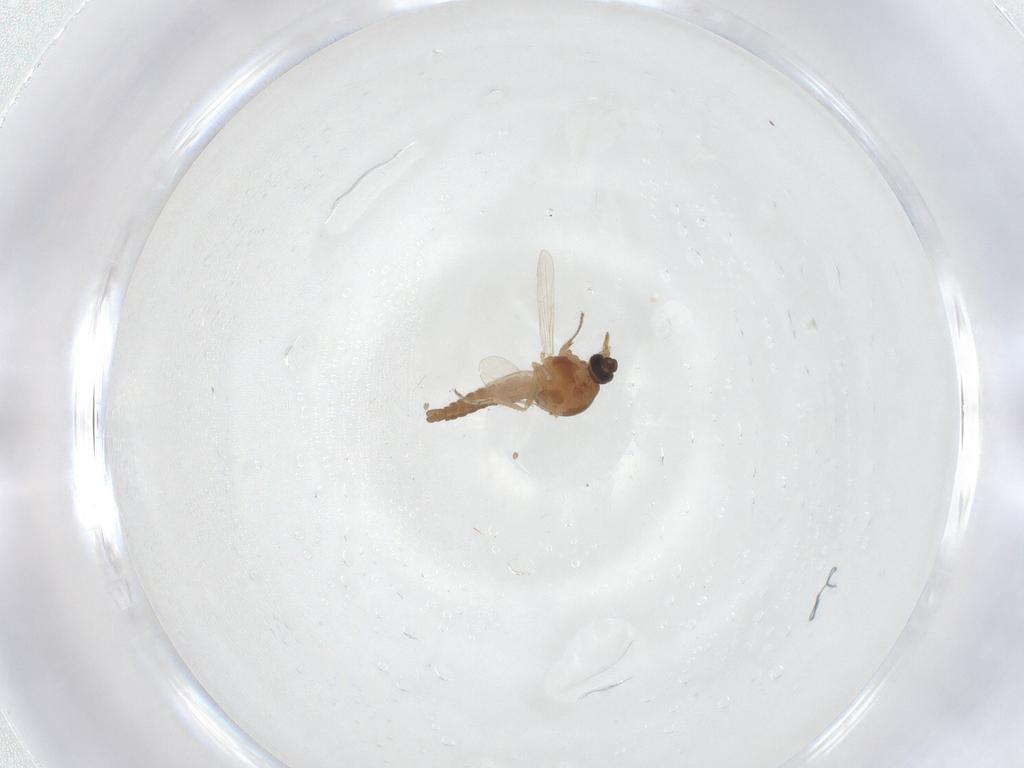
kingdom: Animalia
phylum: Arthropoda
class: Insecta
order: Diptera
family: Ceratopogonidae
